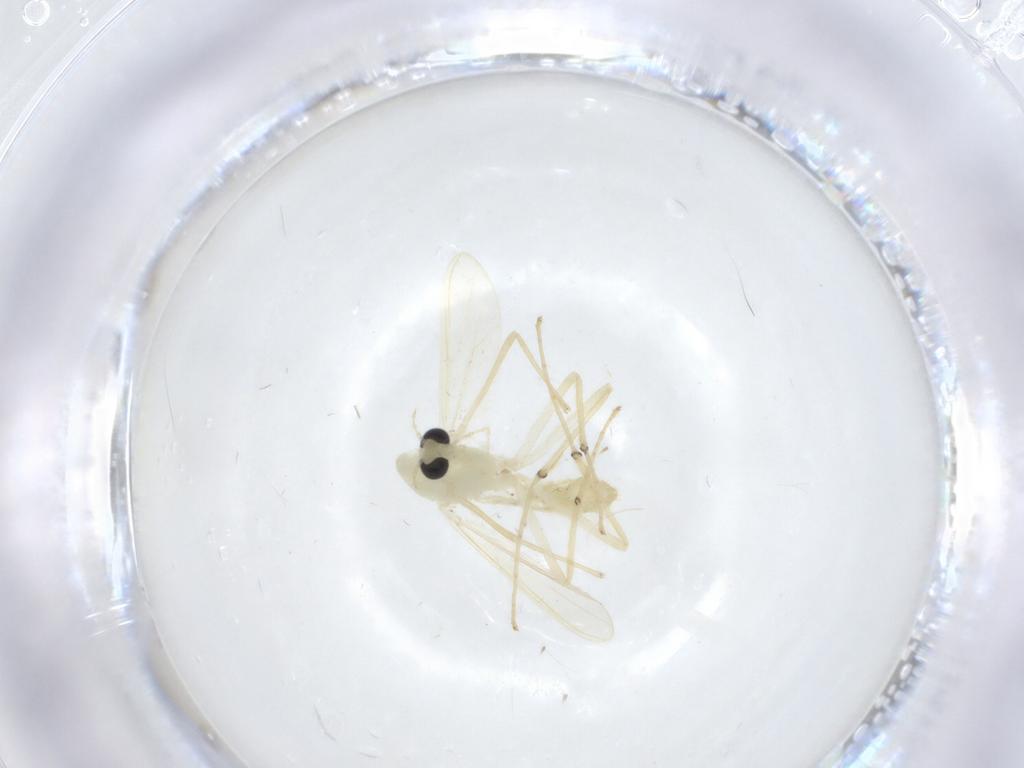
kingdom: Animalia
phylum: Arthropoda
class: Insecta
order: Diptera
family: Chironomidae
